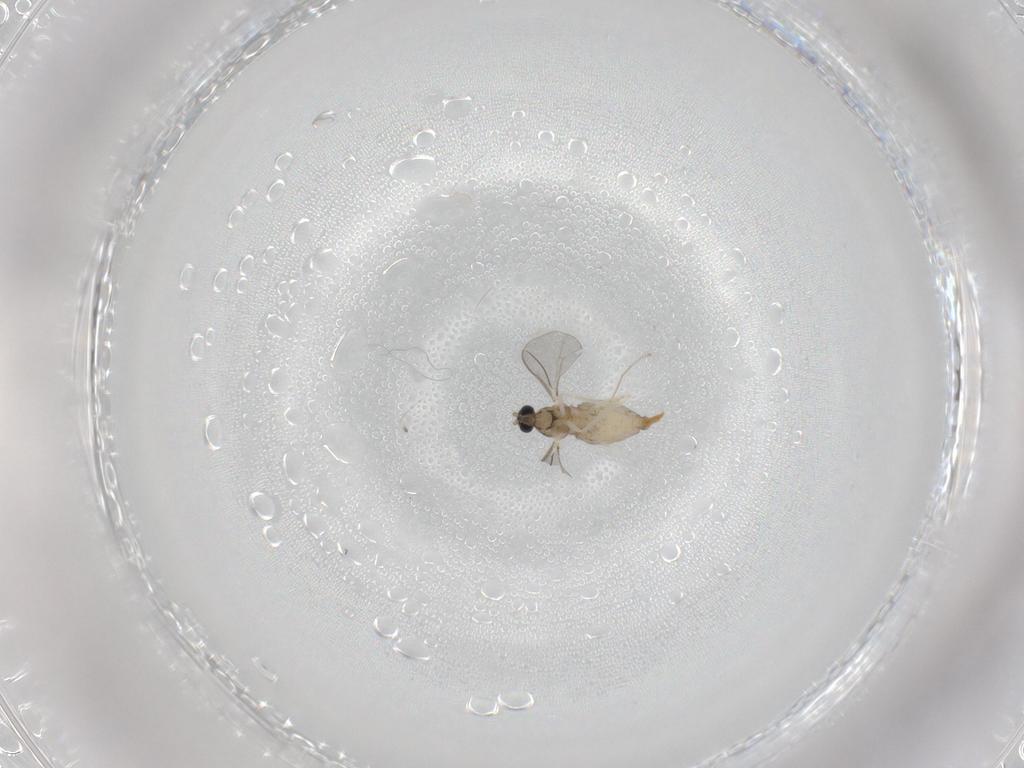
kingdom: Animalia
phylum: Arthropoda
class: Insecta
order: Diptera
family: Cecidomyiidae
